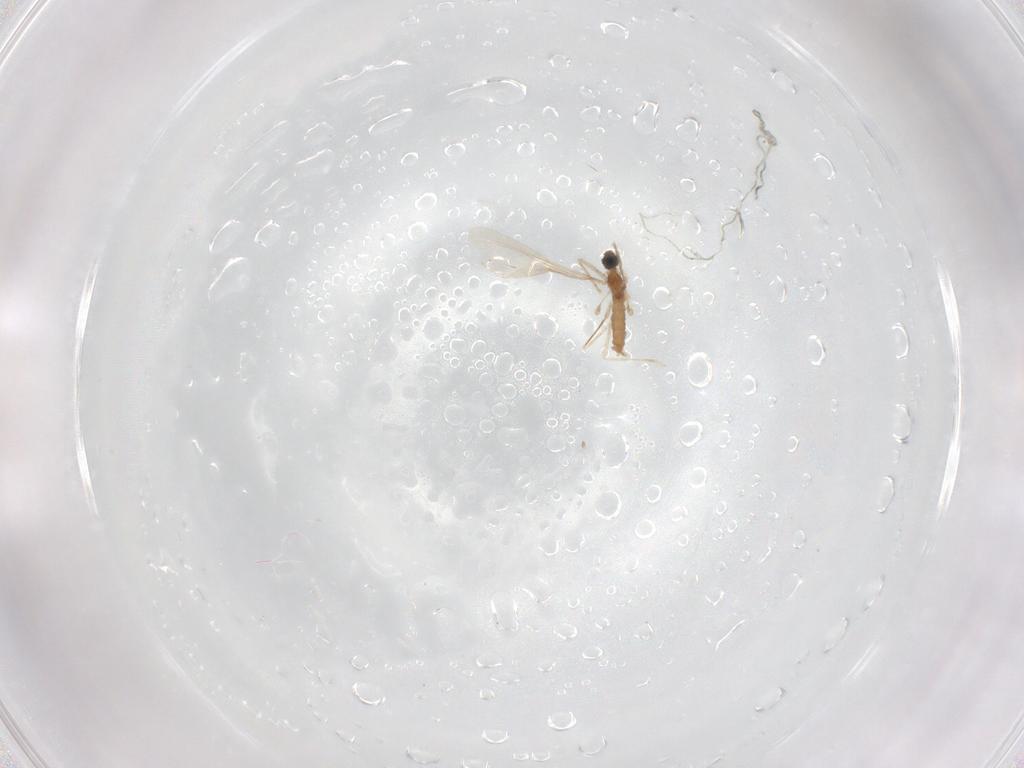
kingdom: Animalia
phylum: Arthropoda
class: Insecta
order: Diptera
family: Cecidomyiidae
